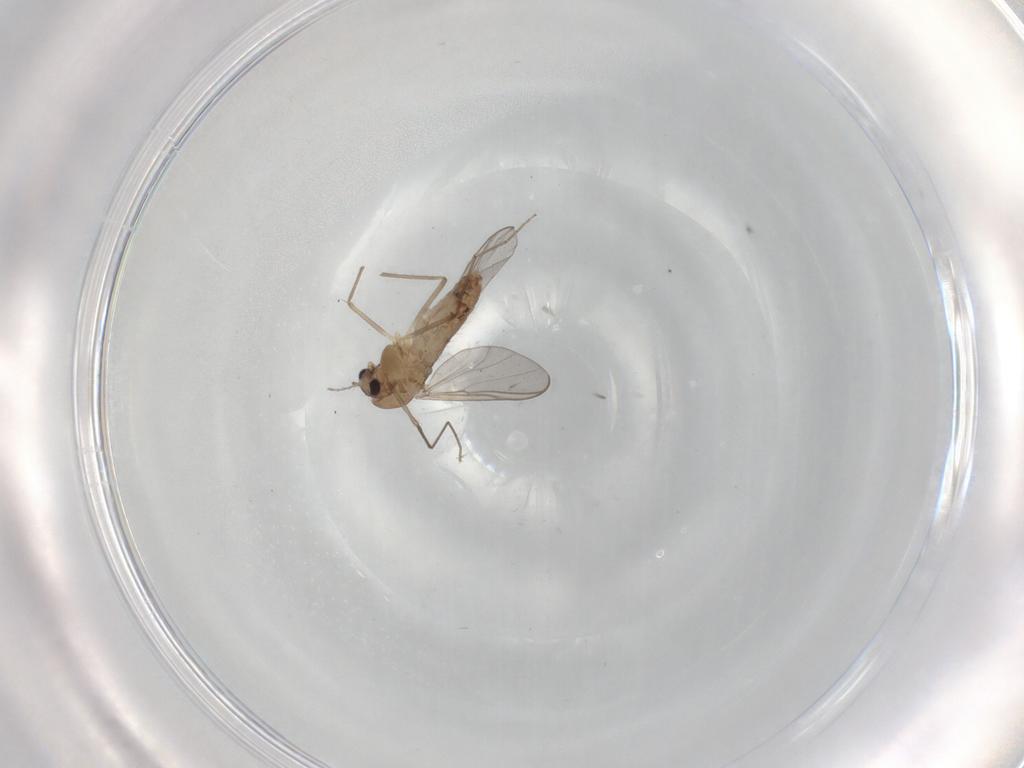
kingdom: Animalia
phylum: Arthropoda
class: Insecta
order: Diptera
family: Chironomidae
